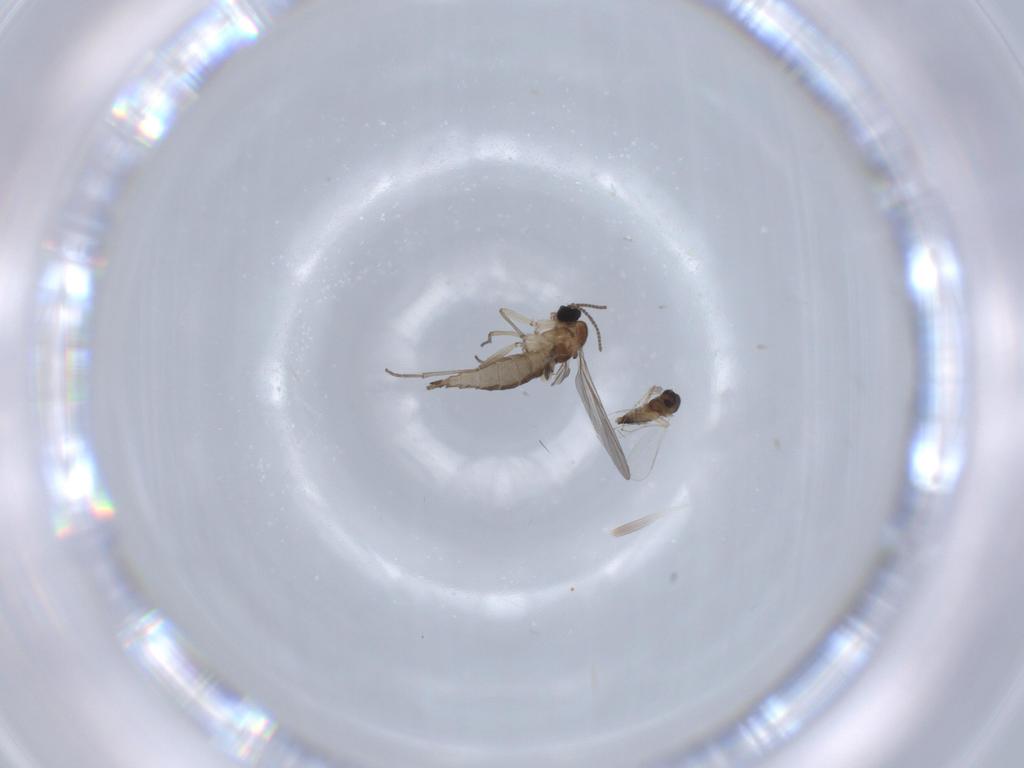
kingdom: Animalia
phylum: Arthropoda
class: Insecta
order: Diptera
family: Sciaridae
